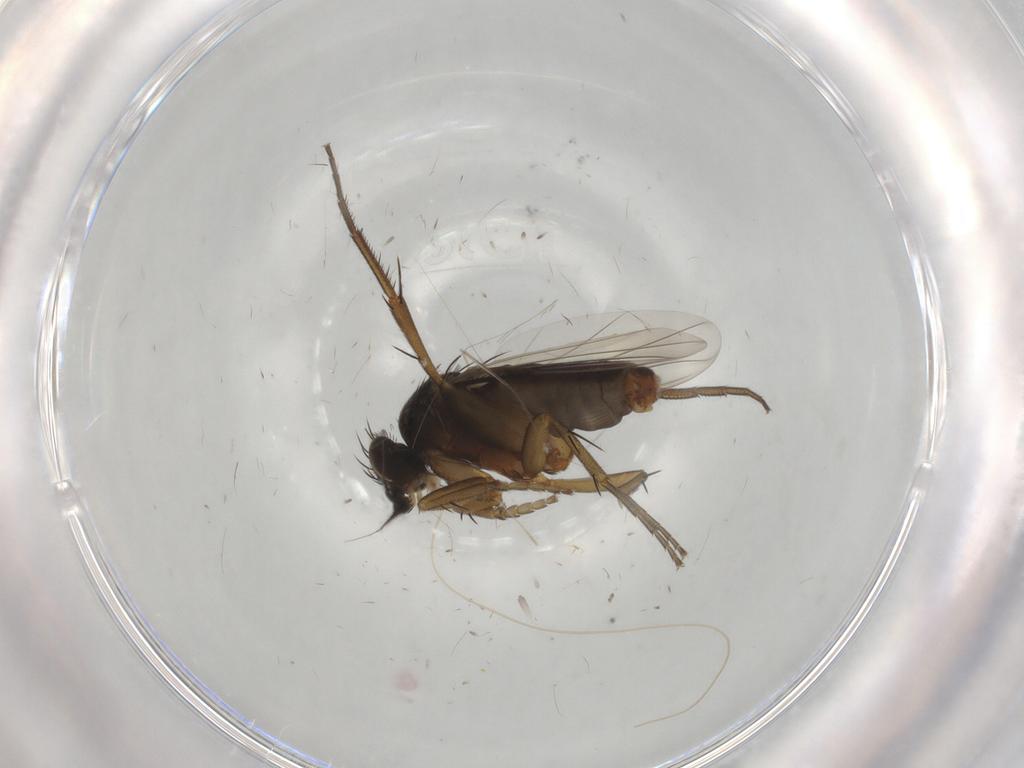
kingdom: Animalia
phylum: Arthropoda
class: Insecta
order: Diptera
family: Phoridae
